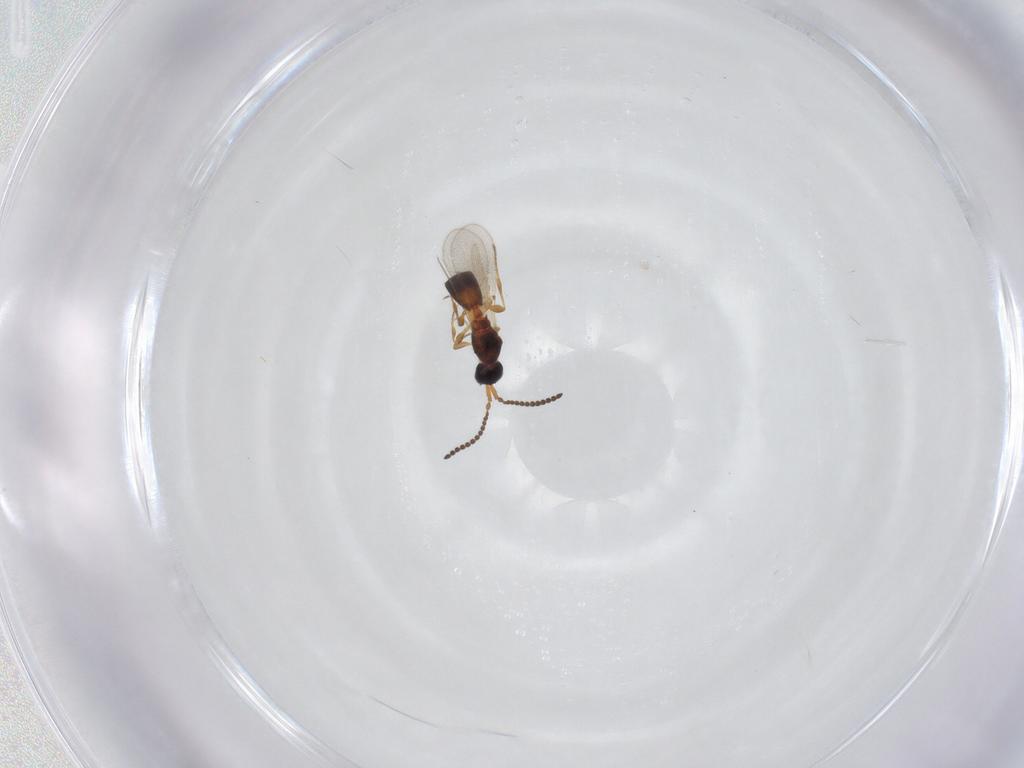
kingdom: Animalia
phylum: Arthropoda
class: Insecta
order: Hymenoptera
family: Diapriidae
